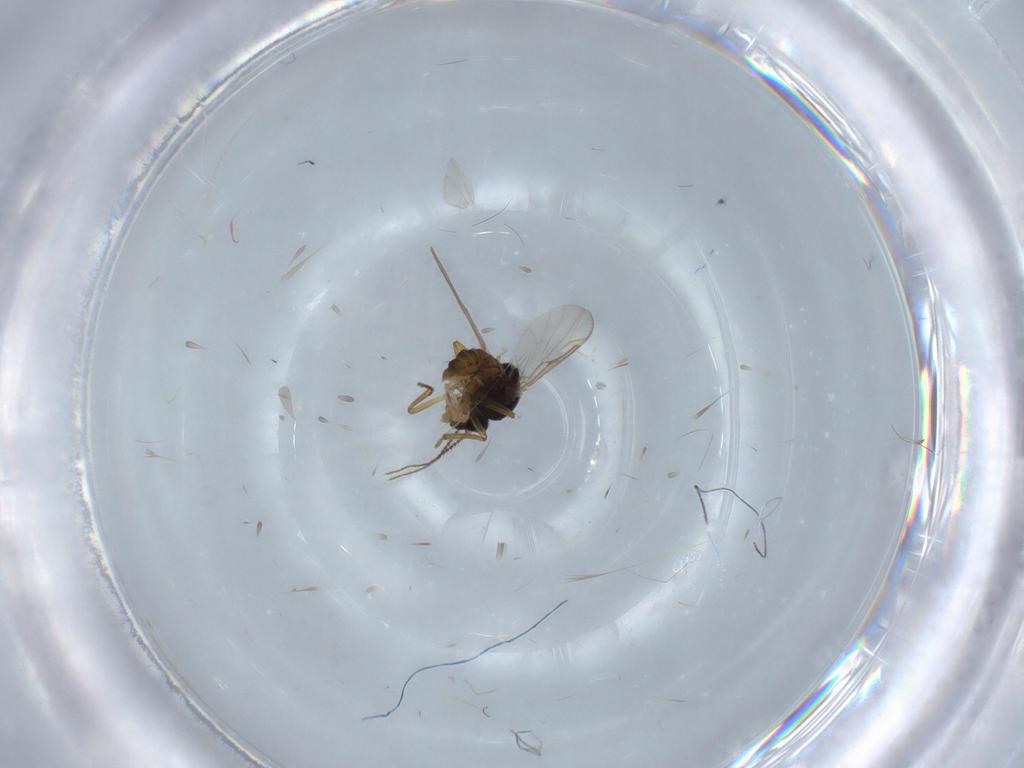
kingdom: Animalia
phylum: Arthropoda
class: Insecta
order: Diptera
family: Ceratopogonidae
